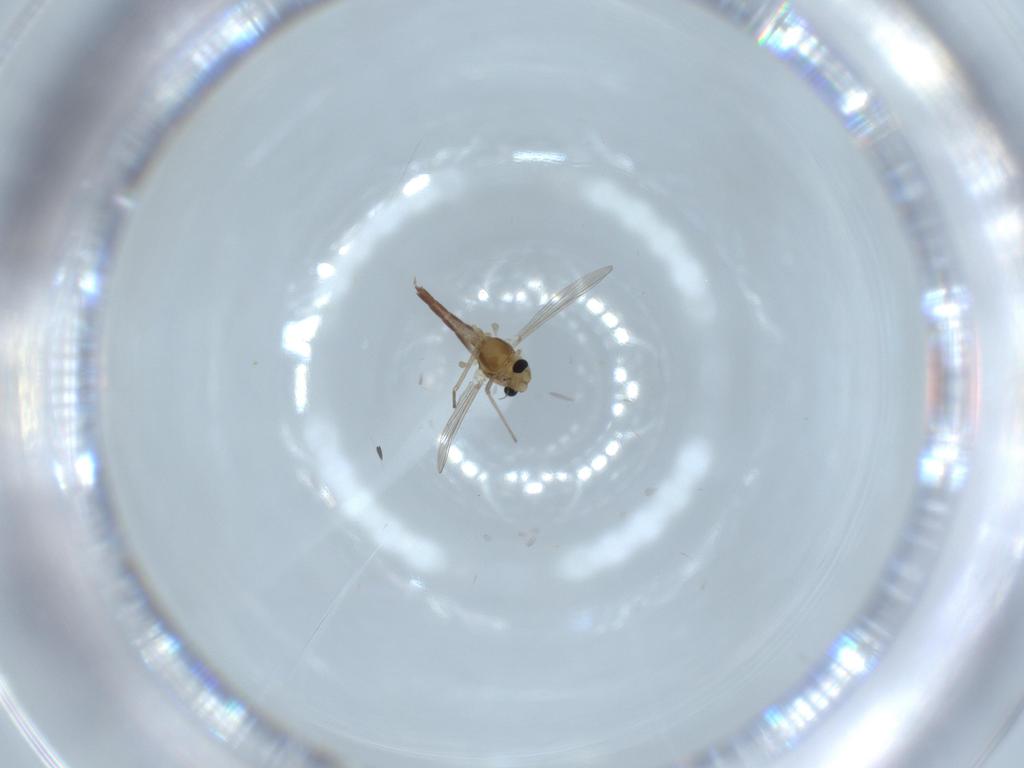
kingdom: Animalia
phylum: Arthropoda
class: Insecta
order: Diptera
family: Chironomidae
